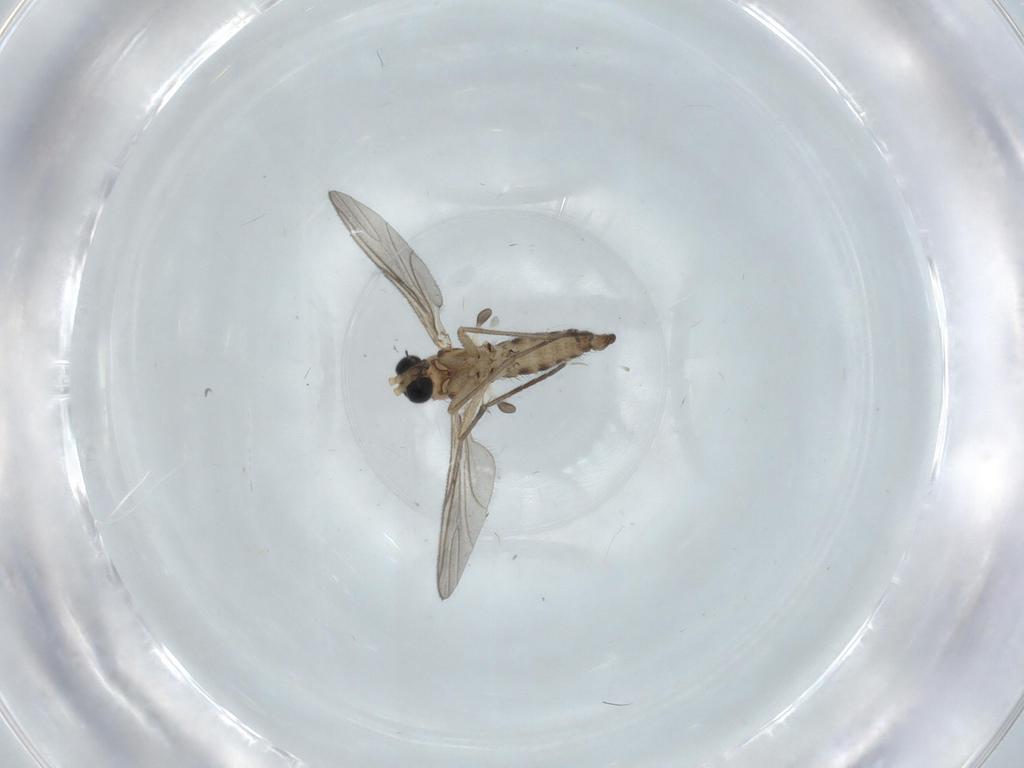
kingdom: Animalia
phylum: Arthropoda
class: Insecta
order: Diptera
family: Sciaridae
